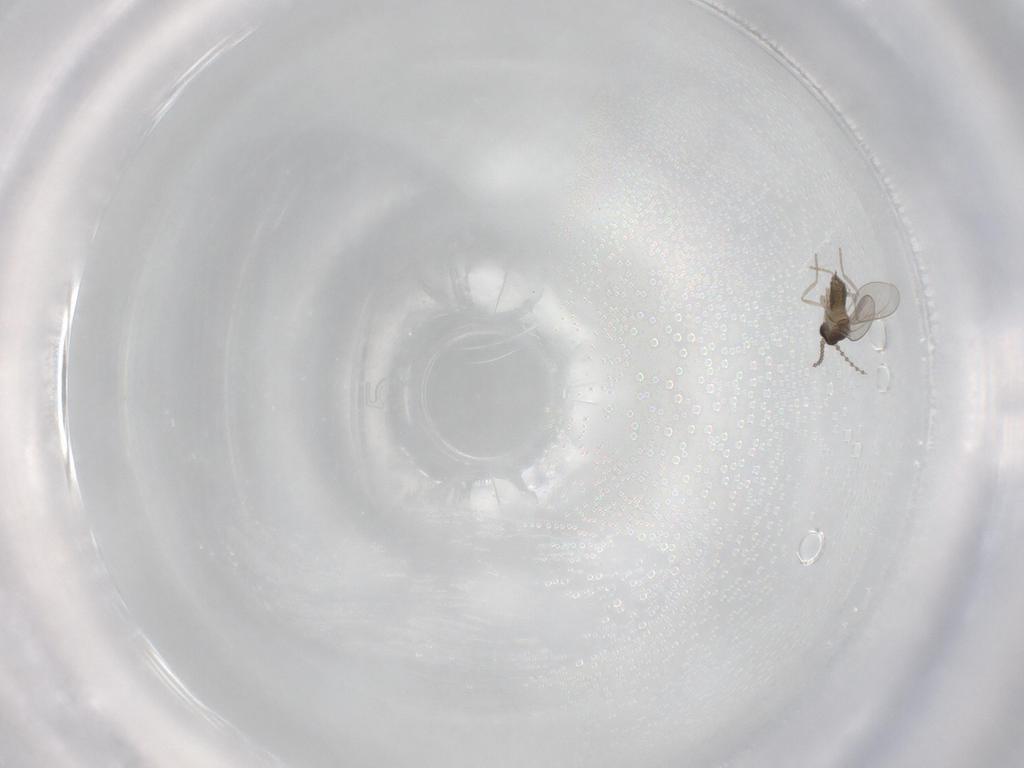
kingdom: Animalia
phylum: Arthropoda
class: Insecta
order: Diptera
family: Cecidomyiidae
